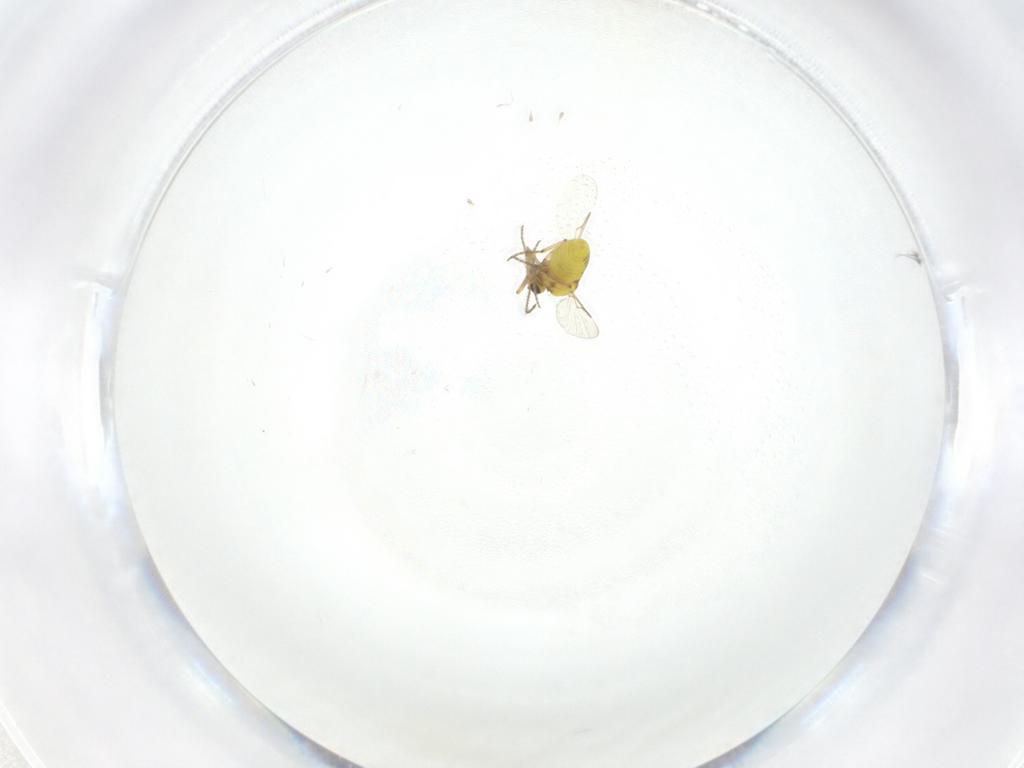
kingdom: Animalia
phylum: Arthropoda
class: Insecta
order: Diptera
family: Ceratopogonidae
